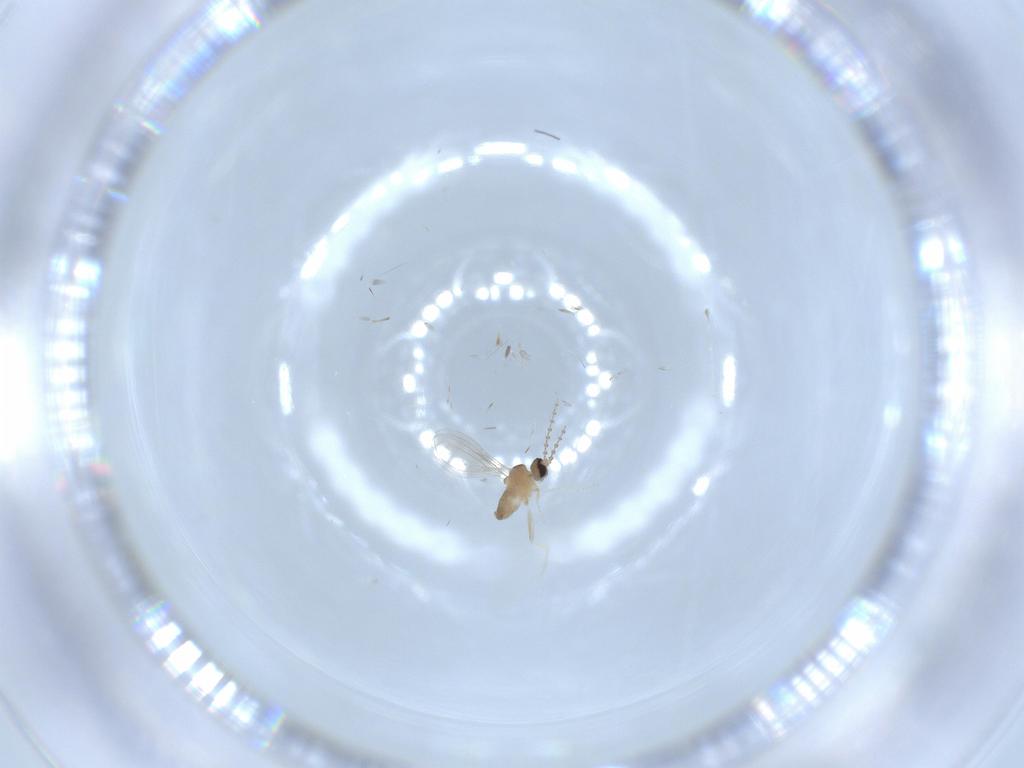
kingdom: Animalia
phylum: Arthropoda
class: Insecta
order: Diptera
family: Cecidomyiidae
